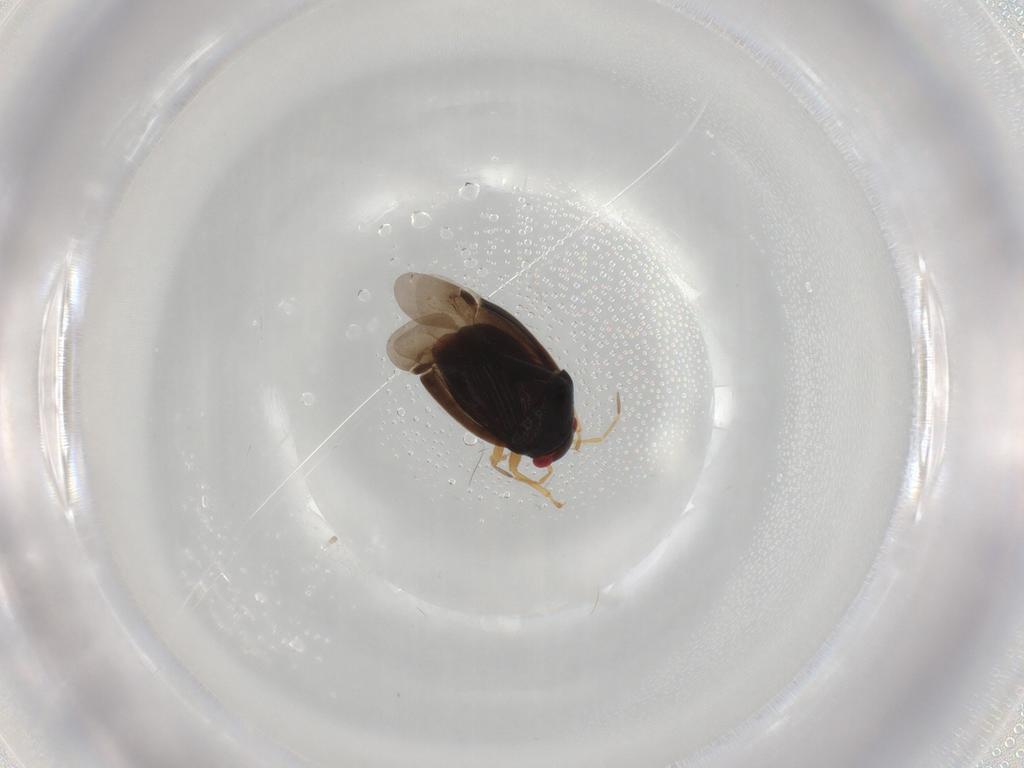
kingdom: Animalia
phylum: Arthropoda
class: Insecta
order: Hemiptera
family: Miridae
